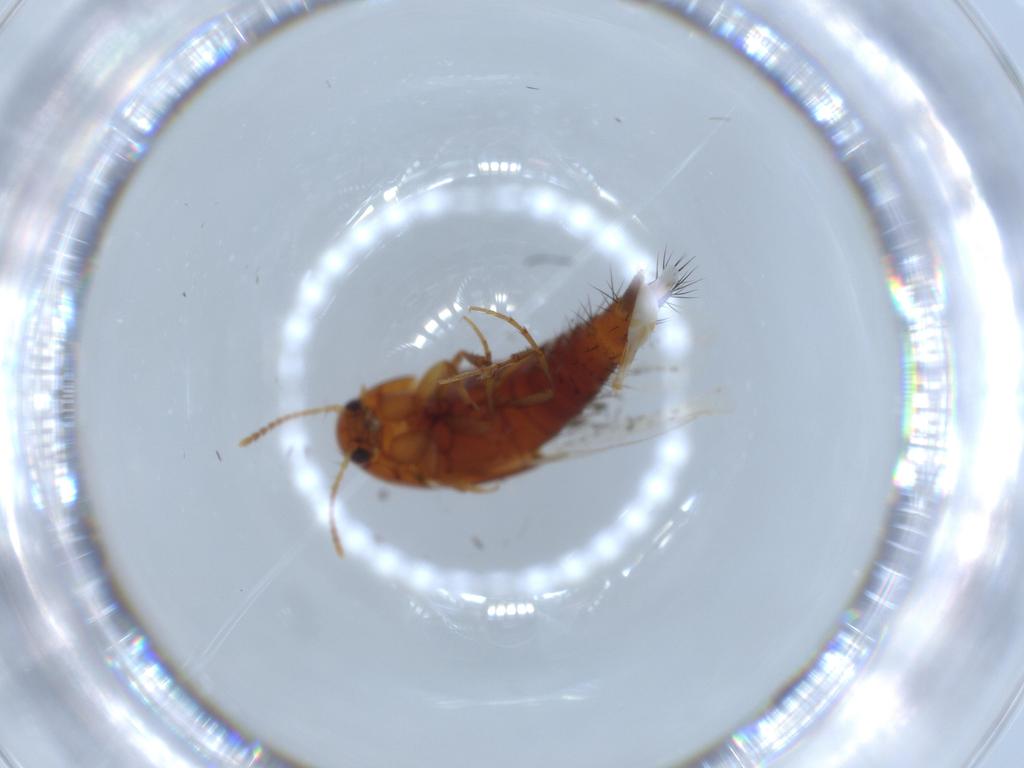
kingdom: Animalia
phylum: Arthropoda
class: Insecta
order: Coleoptera
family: Staphylinidae
